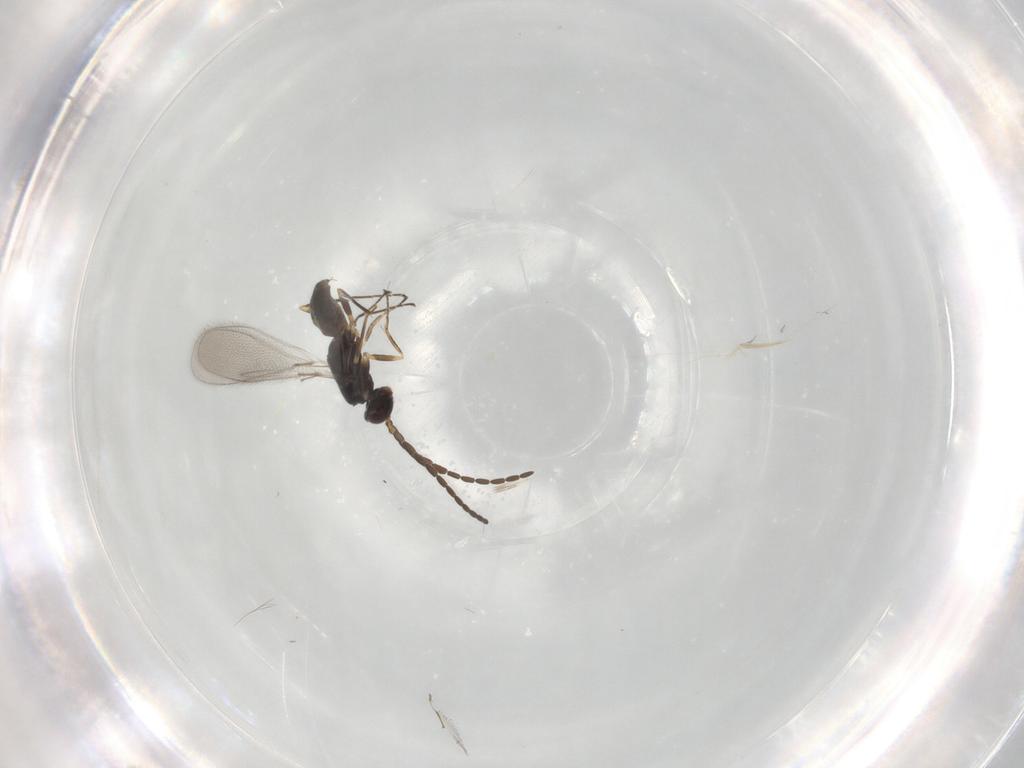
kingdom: Animalia
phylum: Arthropoda
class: Insecta
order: Hymenoptera
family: Mymaridae
